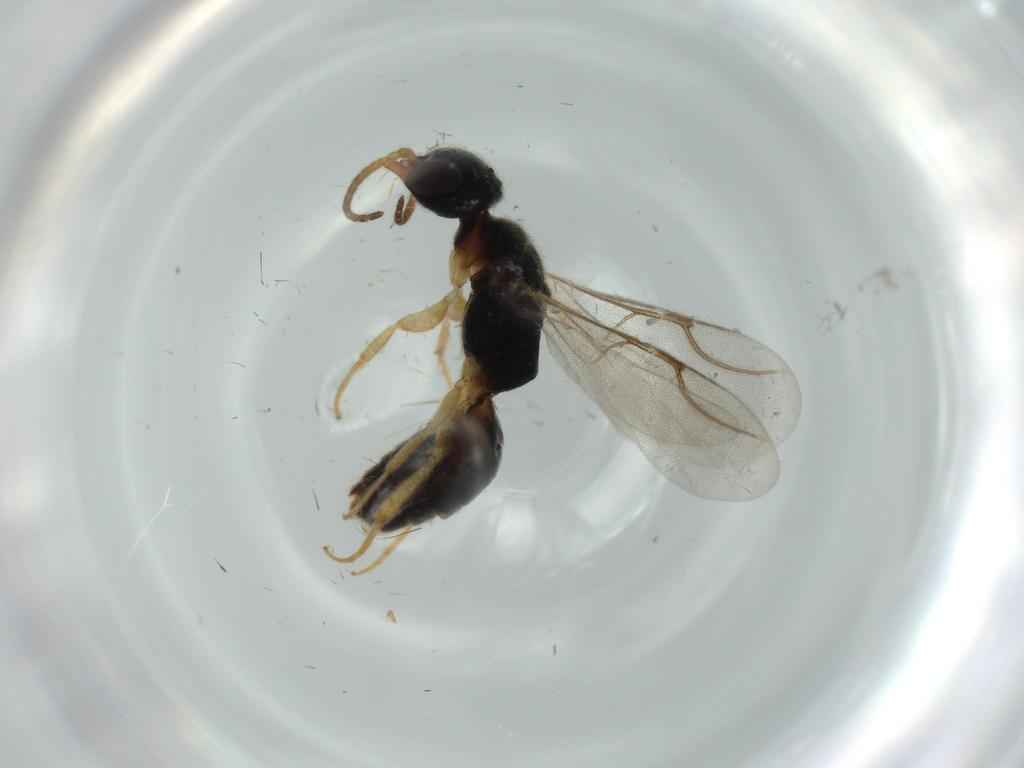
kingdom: Animalia
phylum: Arthropoda
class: Insecta
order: Hymenoptera
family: Bethylidae
